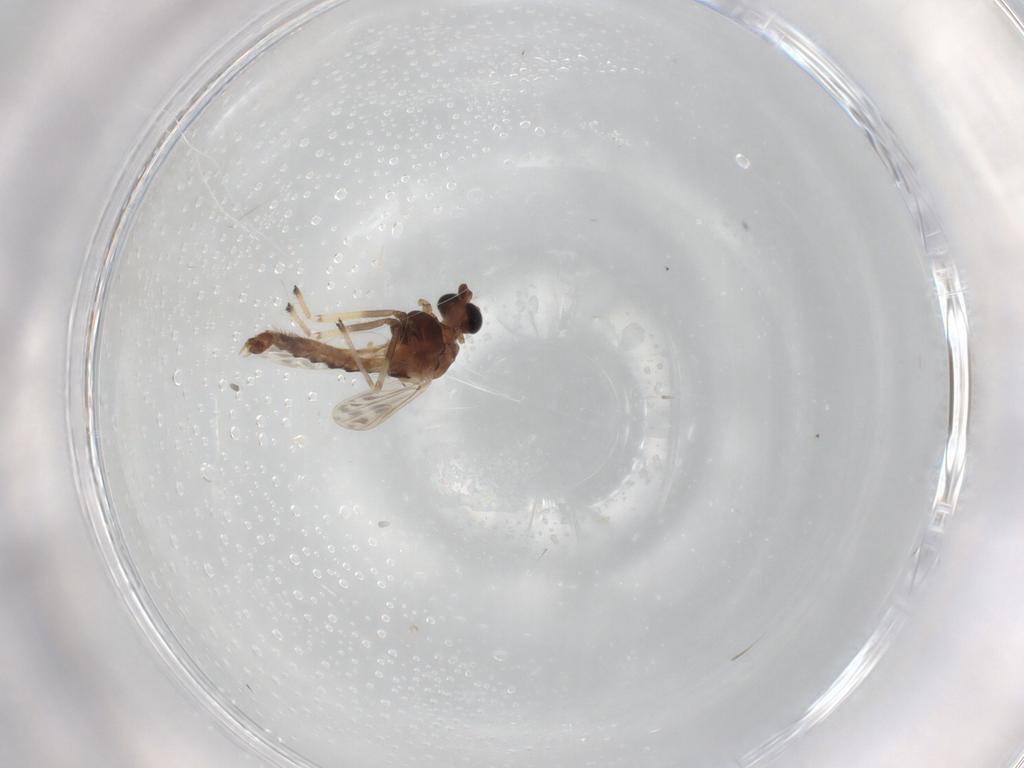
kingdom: Animalia
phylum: Arthropoda
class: Insecta
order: Diptera
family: Chironomidae
